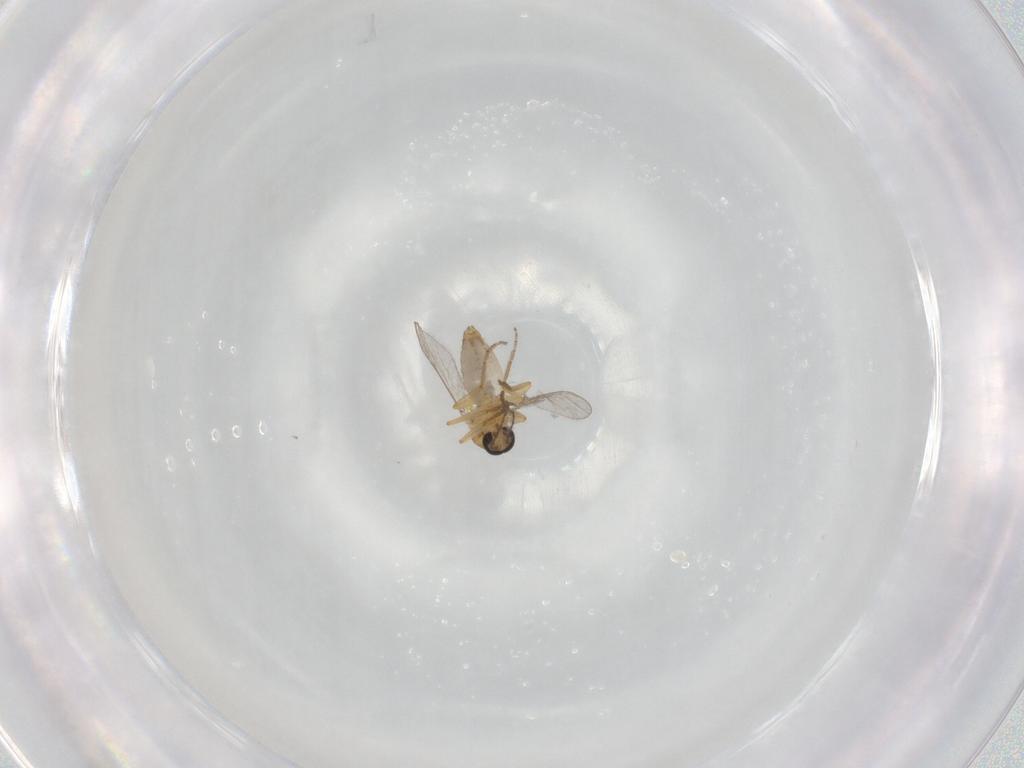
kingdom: Animalia
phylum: Arthropoda
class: Insecta
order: Diptera
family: Ceratopogonidae
